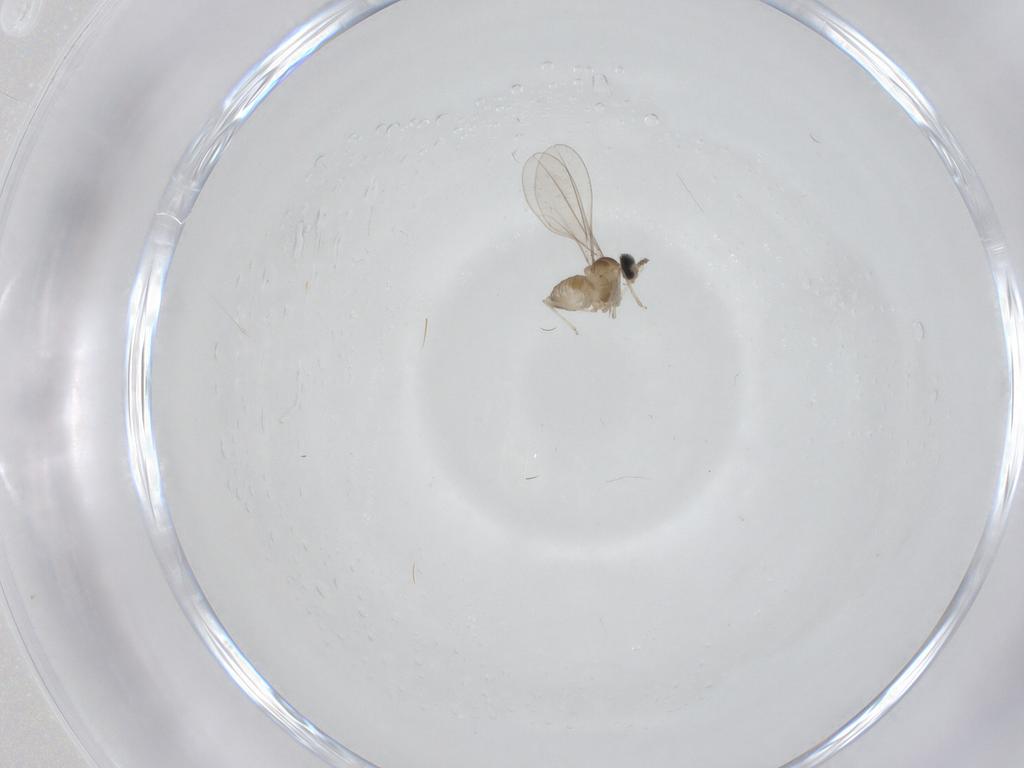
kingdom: Animalia
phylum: Arthropoda
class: Insecta
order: Diptera
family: Cecidomyiidae
